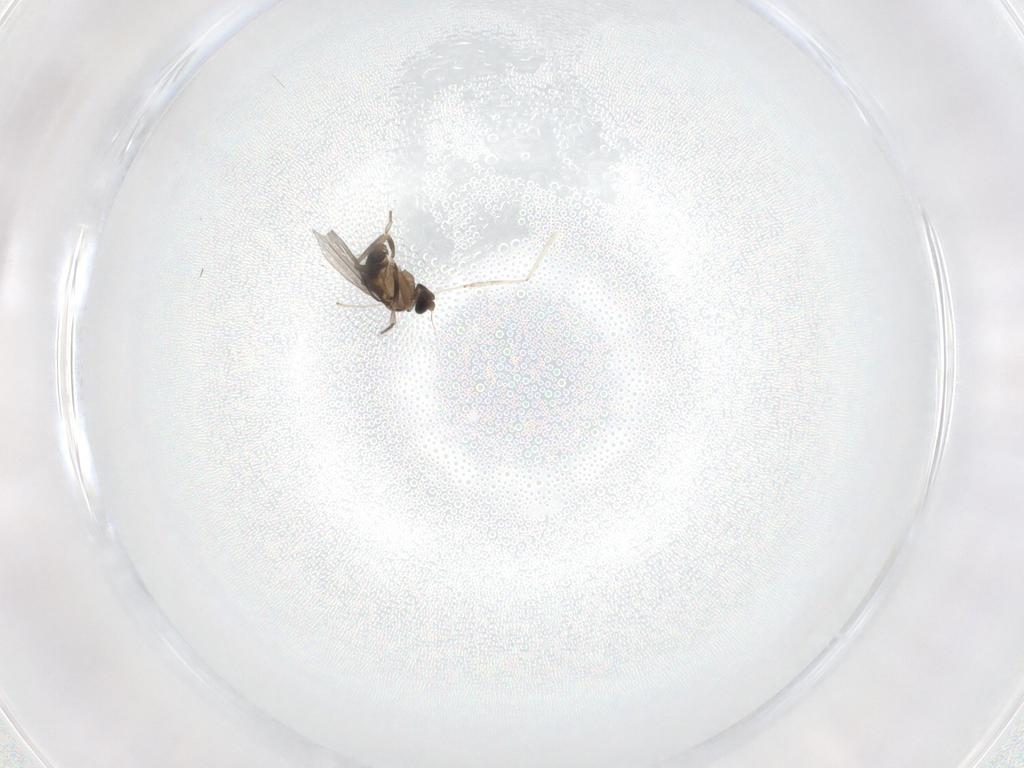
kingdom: Animalia
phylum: Arthropoda
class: Insecta
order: Diptera
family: Phoridae
